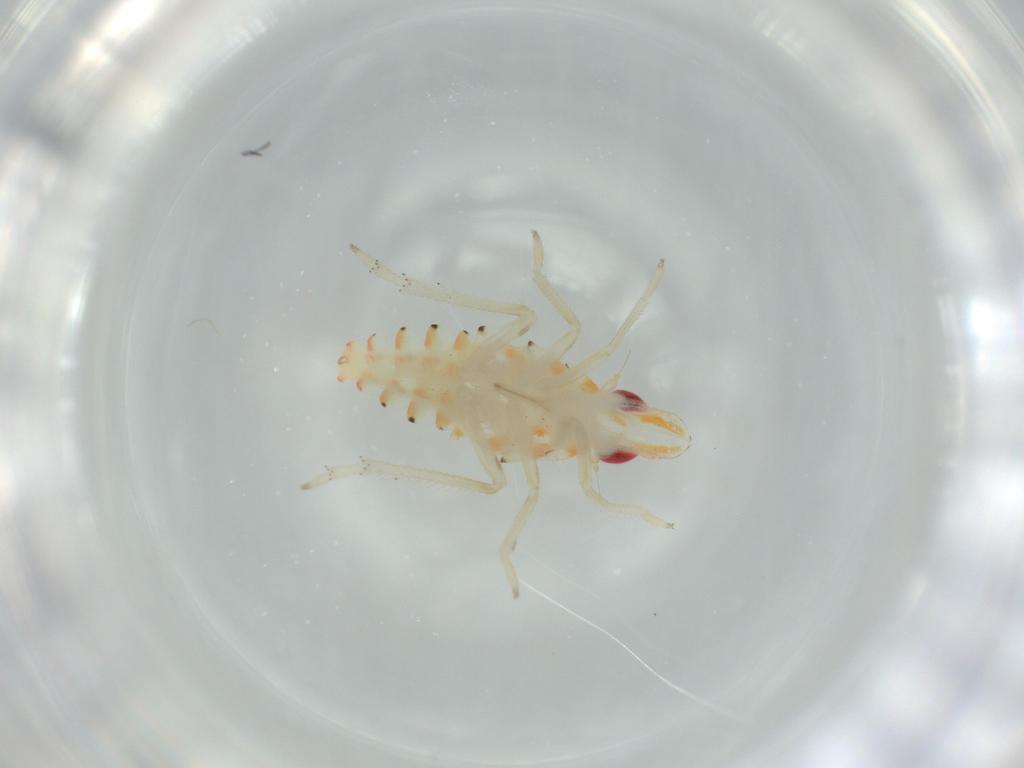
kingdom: Animalia
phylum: Arthropoda
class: Insecta
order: Hemiptera
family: Tropiduchidae
